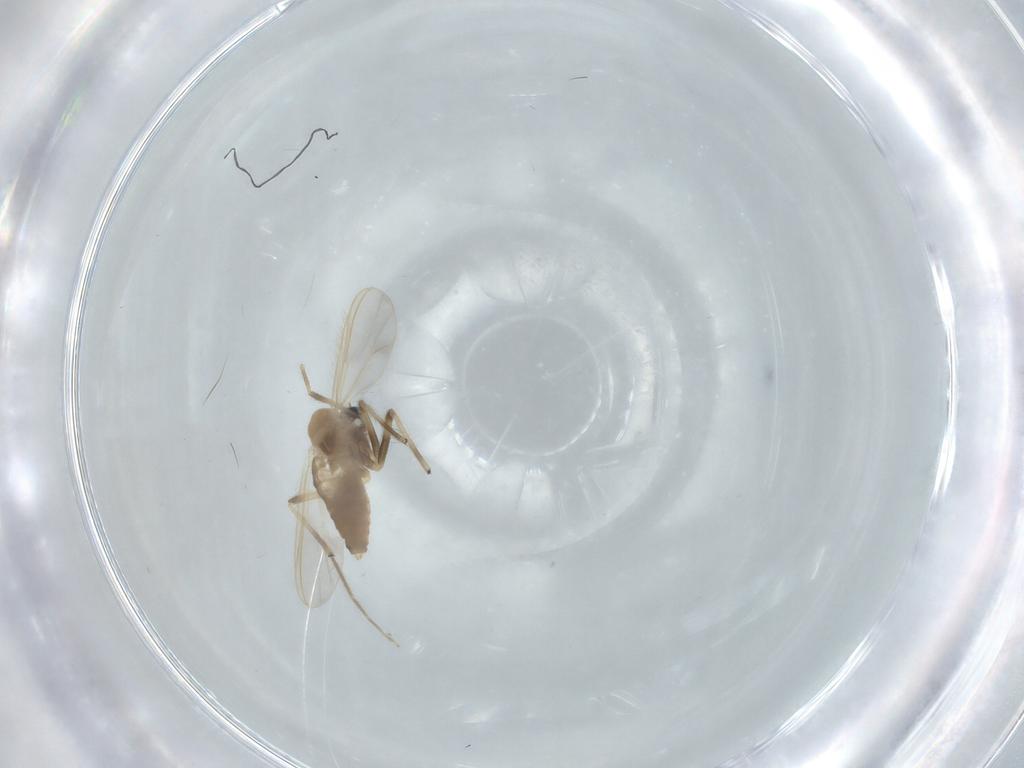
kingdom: Animalia
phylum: Arthropoda
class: Insecta
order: Diptera
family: Chironomidae
